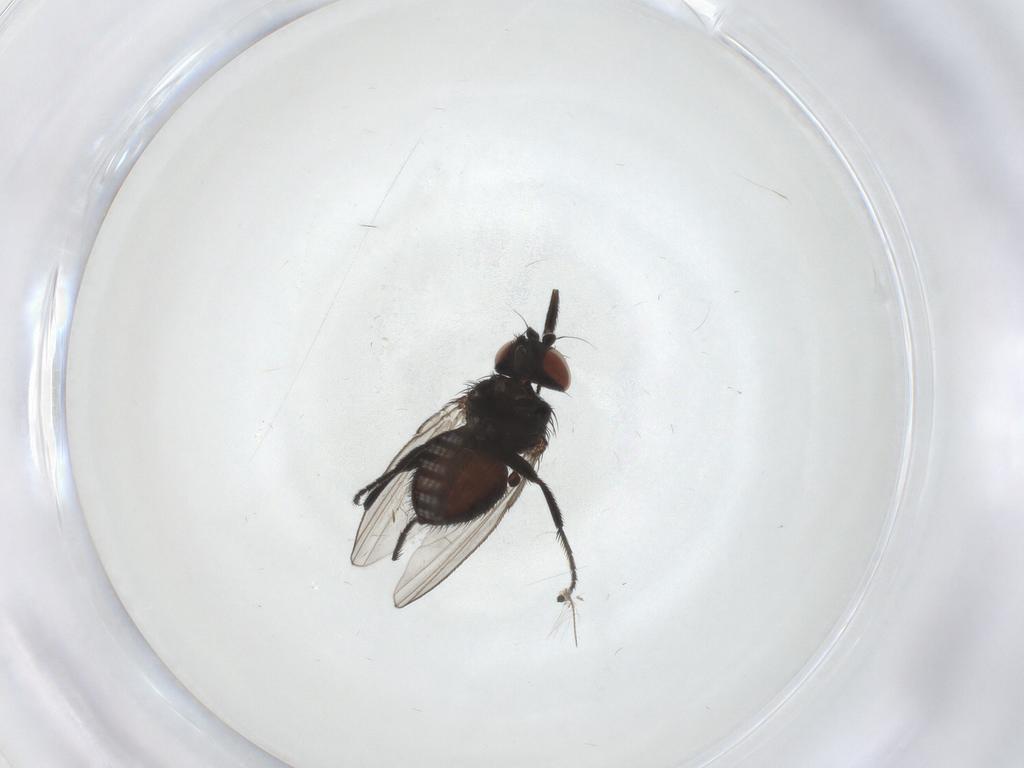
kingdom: Animalia
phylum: Arthropoda
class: Insecta
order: Diptera
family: Milichiidae
